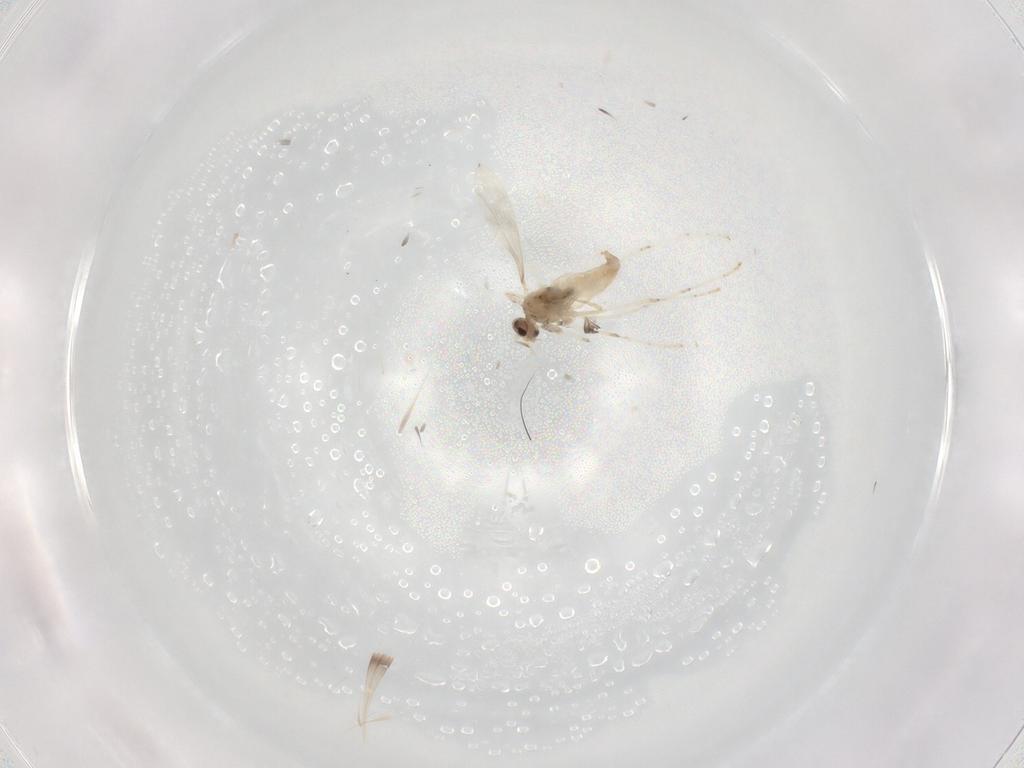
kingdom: Animalia
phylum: Arthropoda
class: Insecta
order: Diptera
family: Cecidomyiidae
